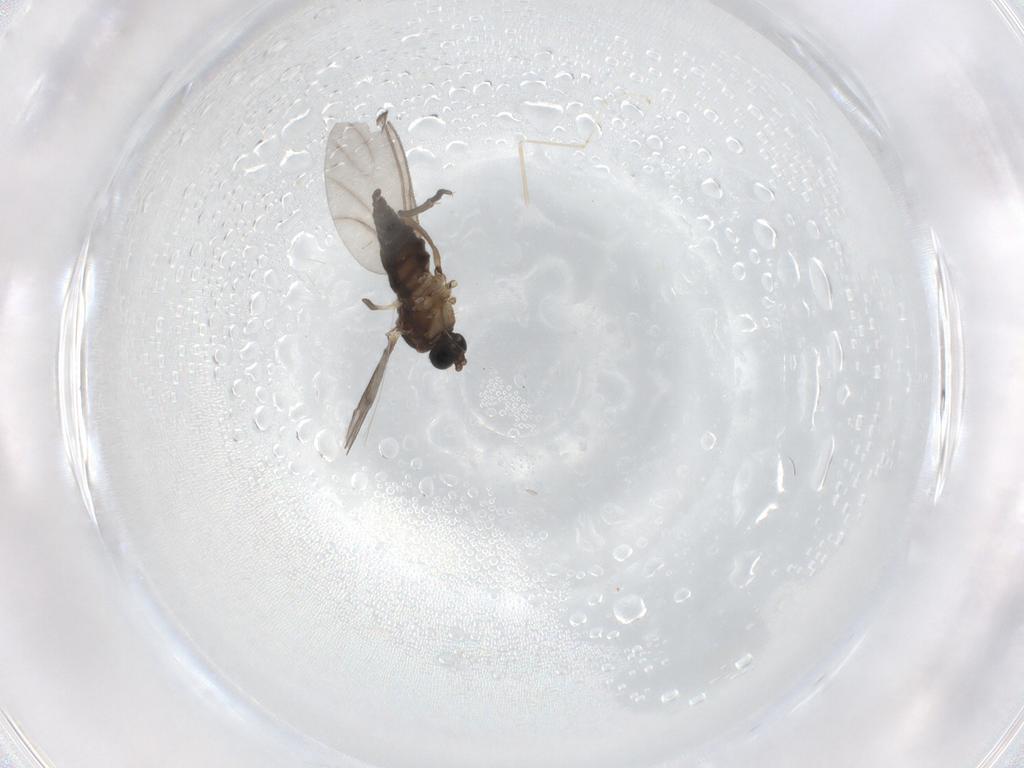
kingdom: Animalia
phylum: Arthropoda
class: Insecta
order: Diptera
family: Sciaridae
